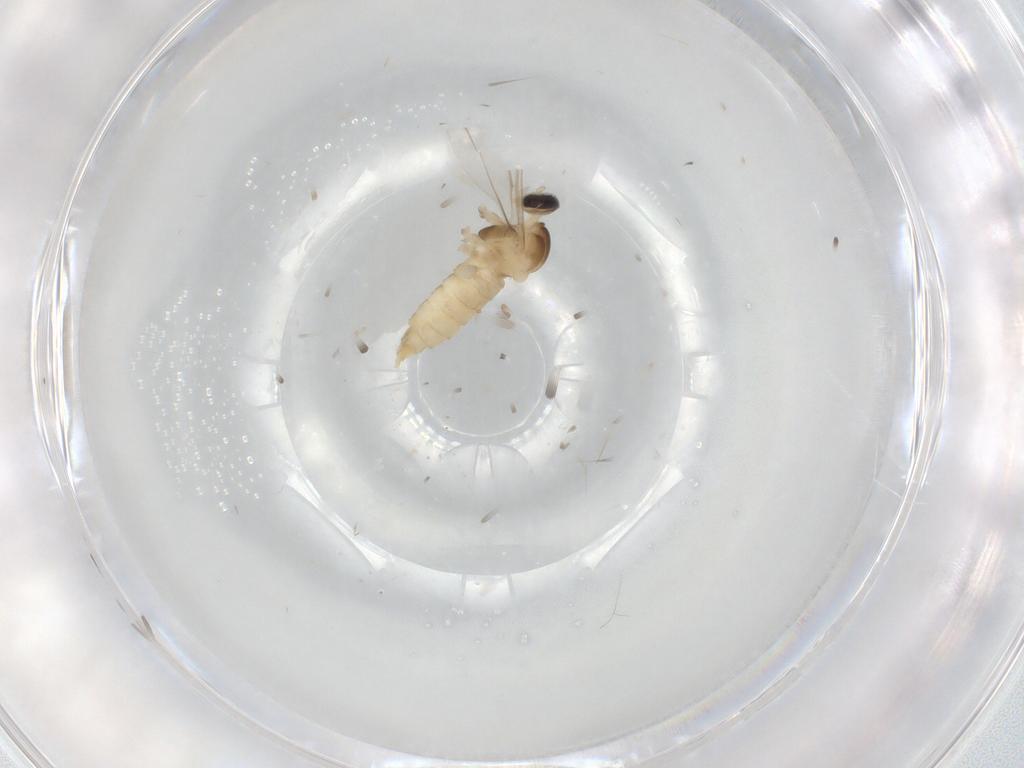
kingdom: Animalia
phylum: Arthropoda
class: Insecta
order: Diptera
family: Cecidomyiidae
